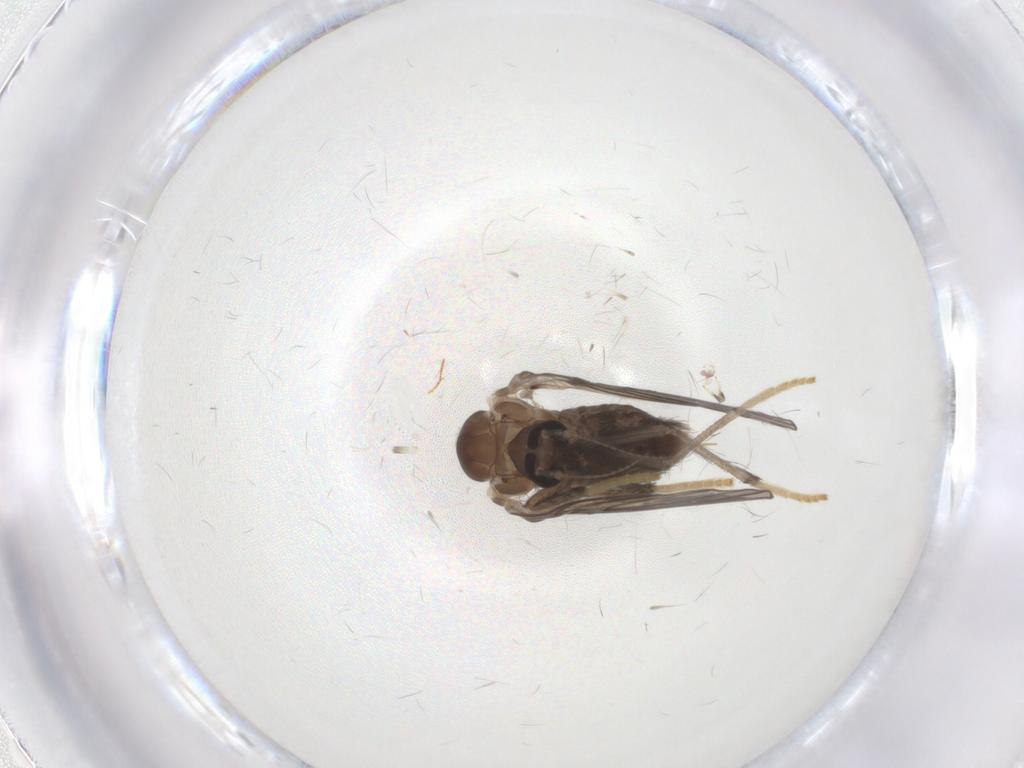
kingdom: Animalia
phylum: Arthropoda
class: Insecta
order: Diptera
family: Psychodidae
